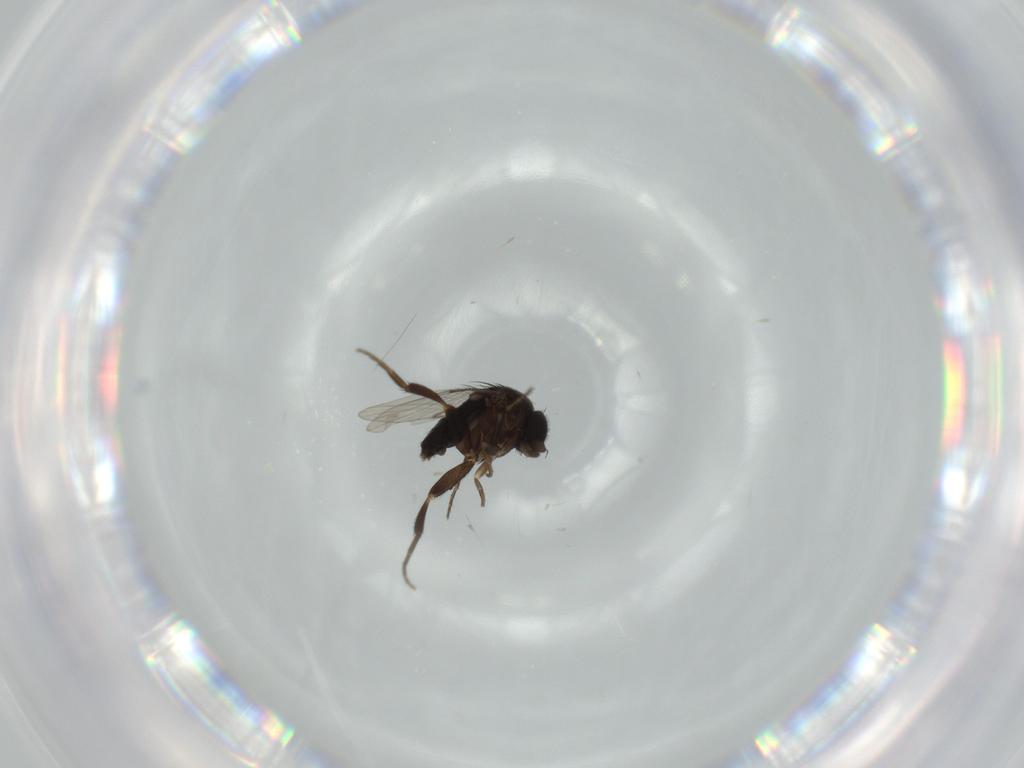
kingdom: Animalia
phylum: Arthropoda
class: Insecta
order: Diptera
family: Phoridae
